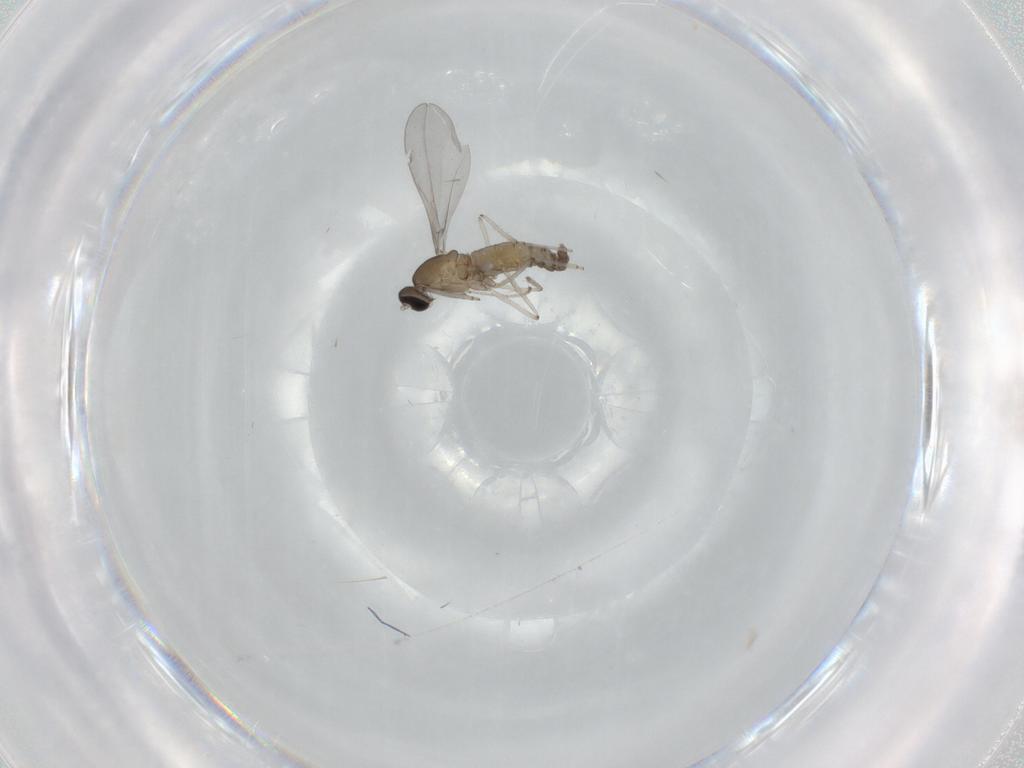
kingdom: Animalia
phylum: Arthropoda
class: Insecta
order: Diptera
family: Cecidomyiidae
